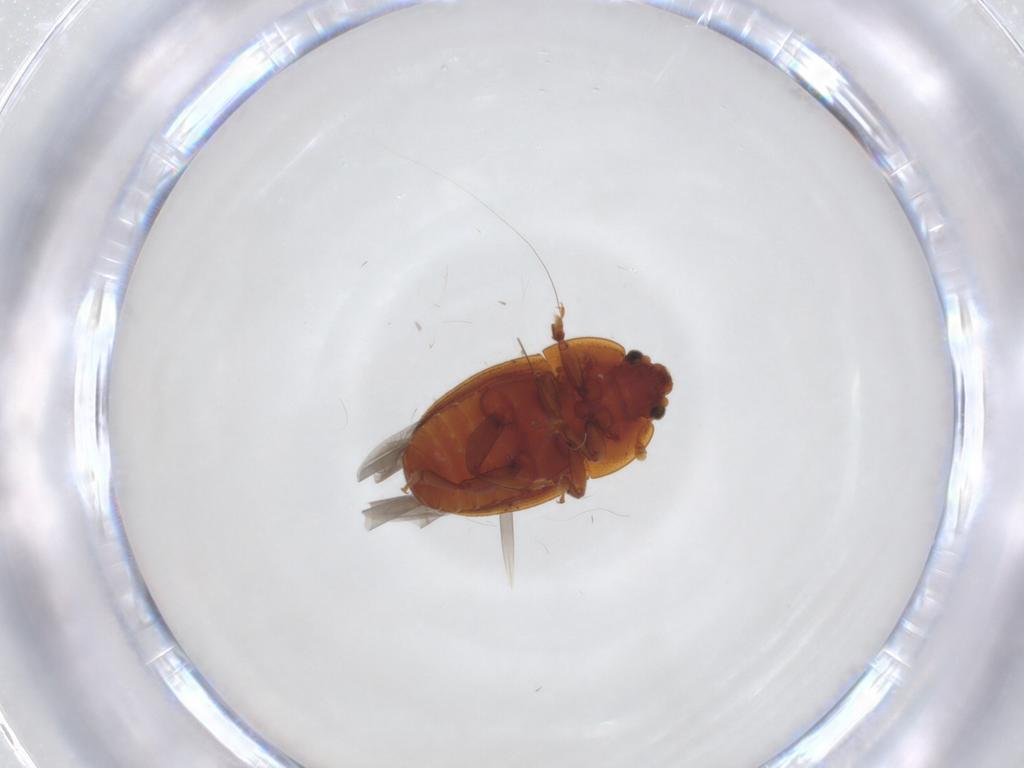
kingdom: Animalia
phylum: Arthropoda
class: Insecta
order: Coleoptera
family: Nitidulidae
